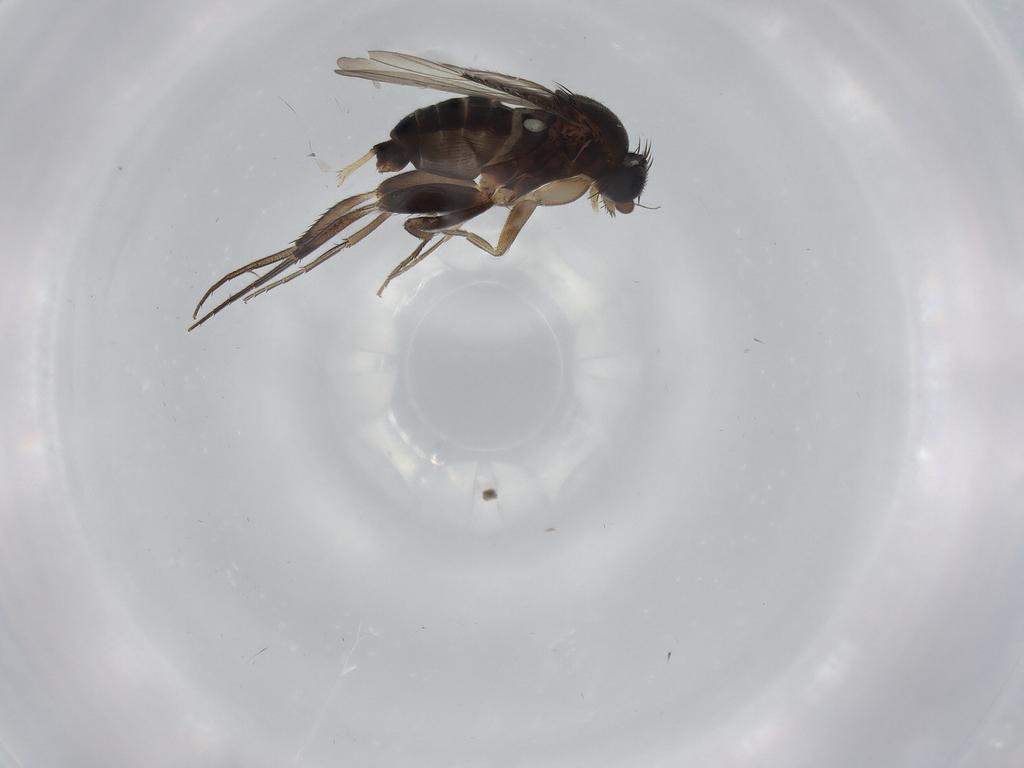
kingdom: Animalia
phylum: Arthropoda
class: Insecta
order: Diptera
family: Phoridae
